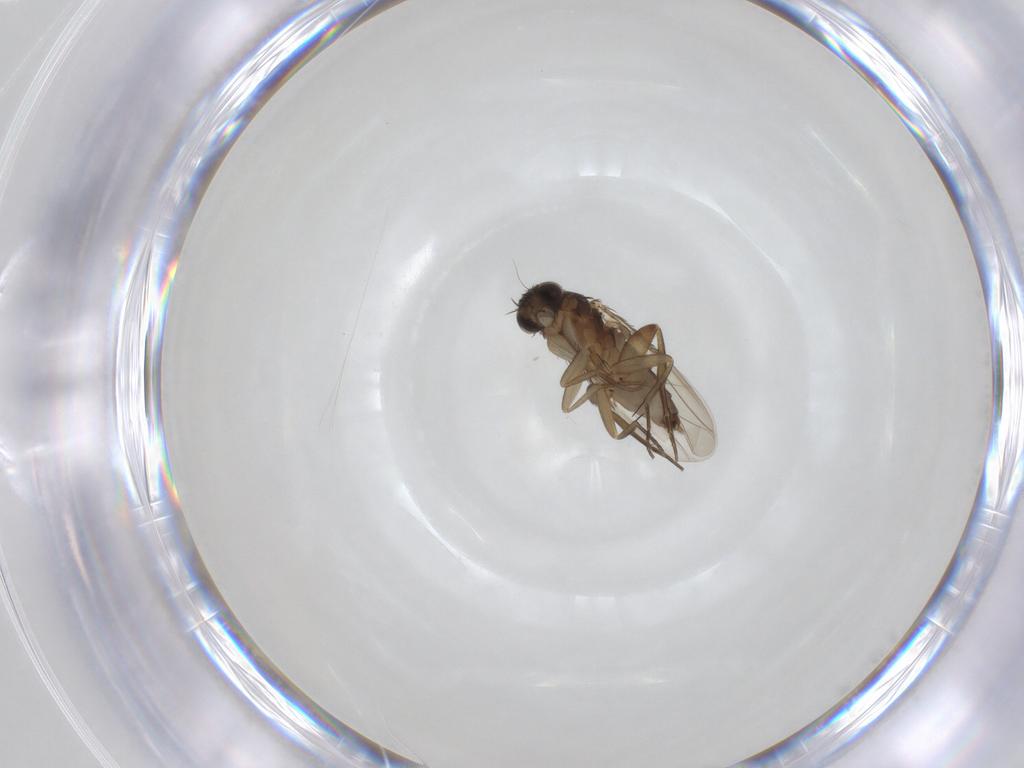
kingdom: Animalia
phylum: Arthropoda
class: Insecta
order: Diptera
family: Phoridae
